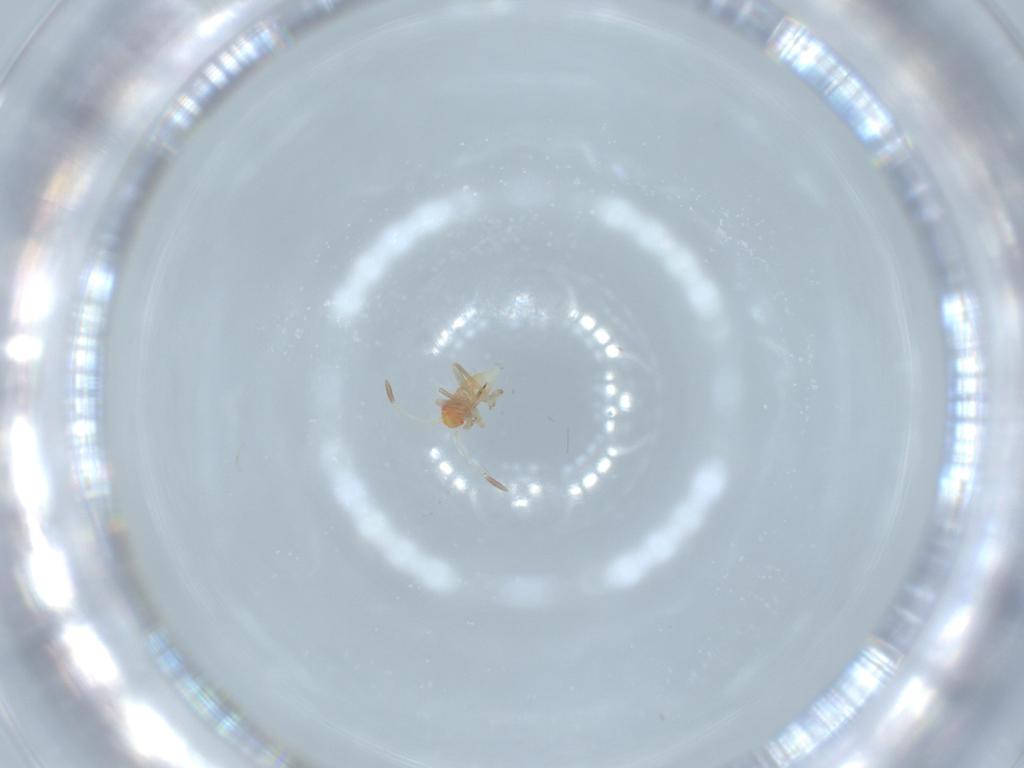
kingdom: Animalia
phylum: Arthropoda
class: Insecta
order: Hemiptera
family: Miridae
